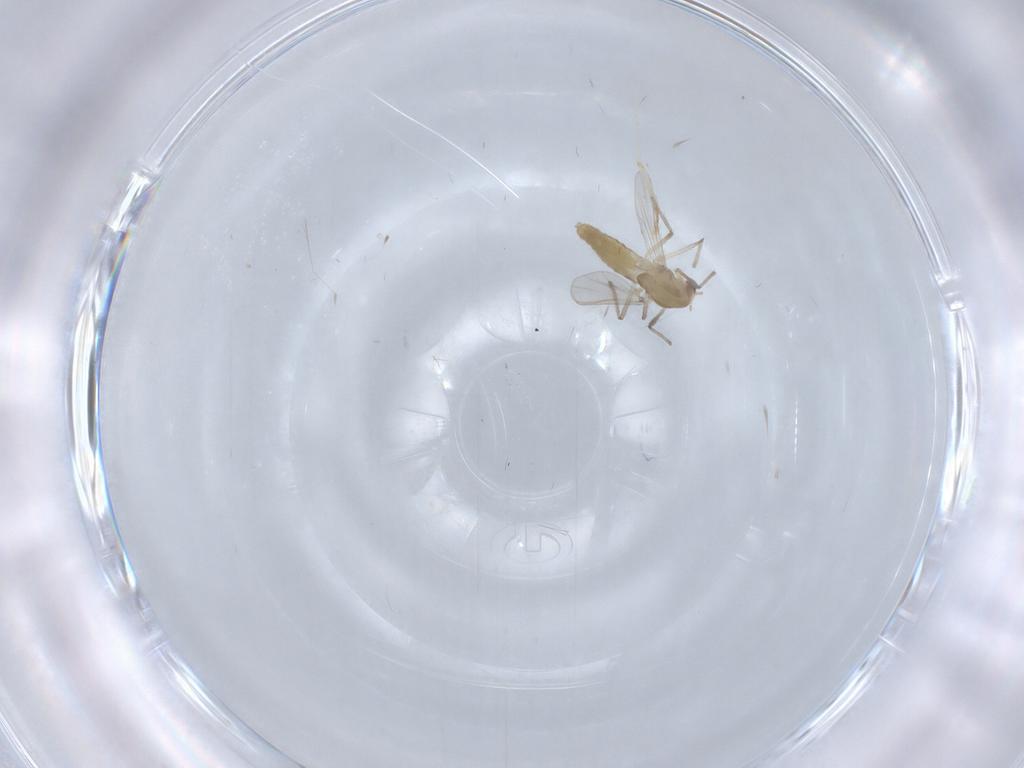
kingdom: Animalia
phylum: Arthropoda
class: Insecta
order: Diptera
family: Chironomidae
